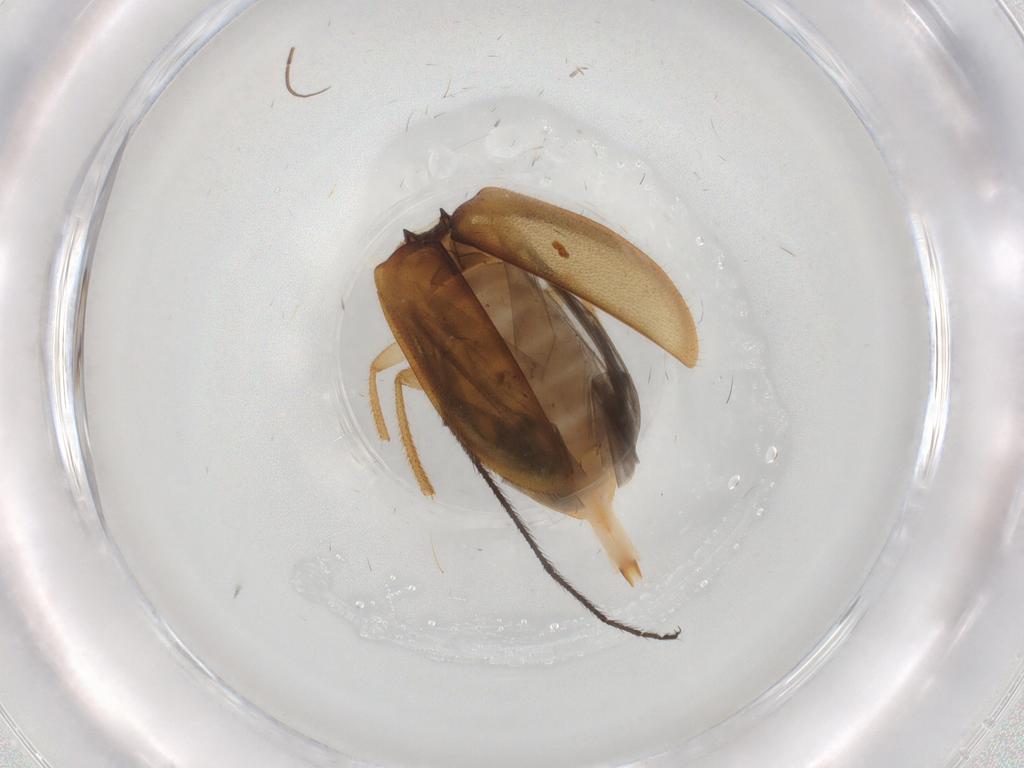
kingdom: Animalia
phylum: Arthropoda
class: Insecta
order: Coleoptera
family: Ptilodactylidae
